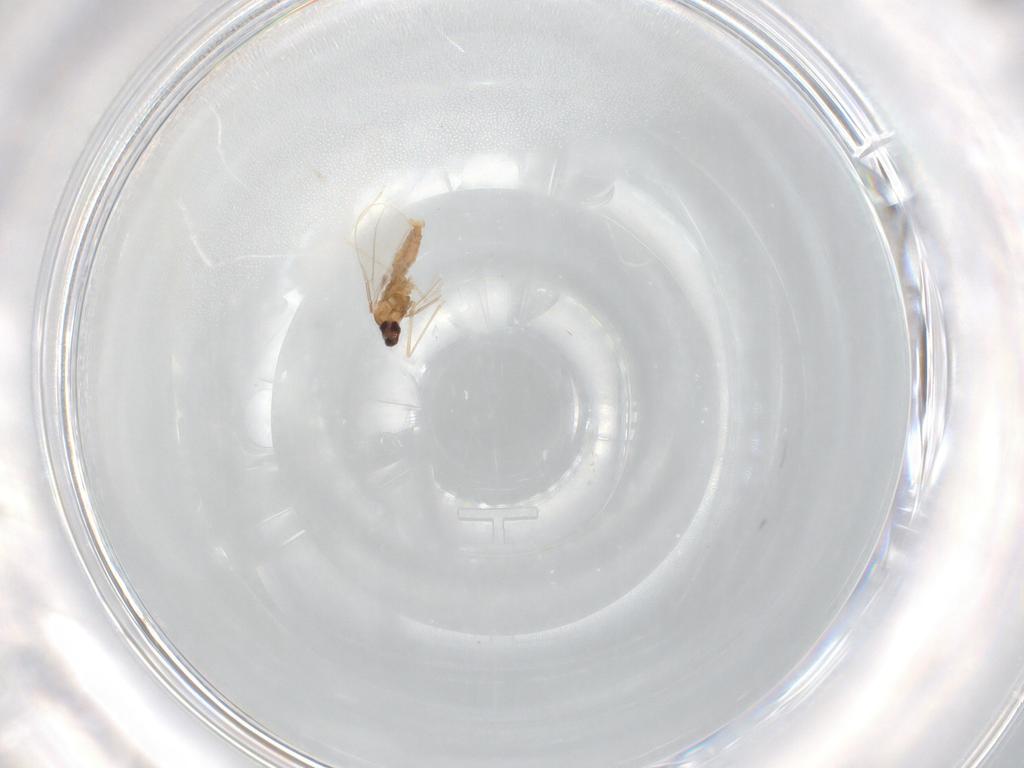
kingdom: Animalia
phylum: Arthropoda
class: Insecta
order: Diptera
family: Cecidomyiidae
